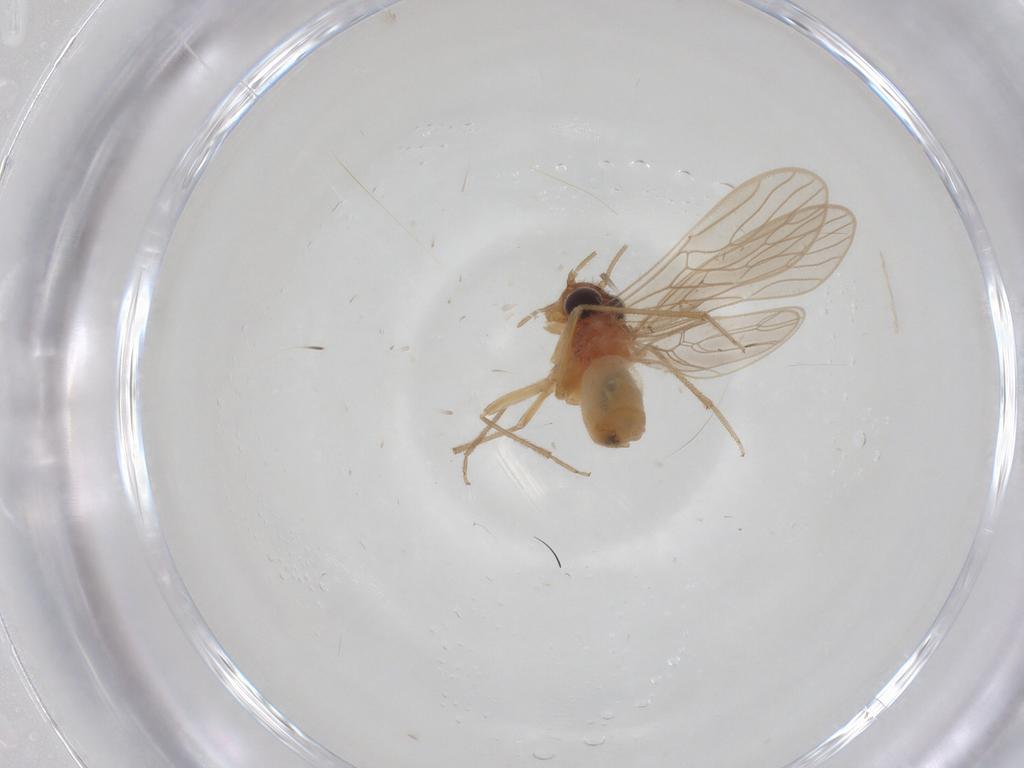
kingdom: Animalia
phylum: Arthropoda
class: Insecta
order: Psocodea
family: Epipsocidae
